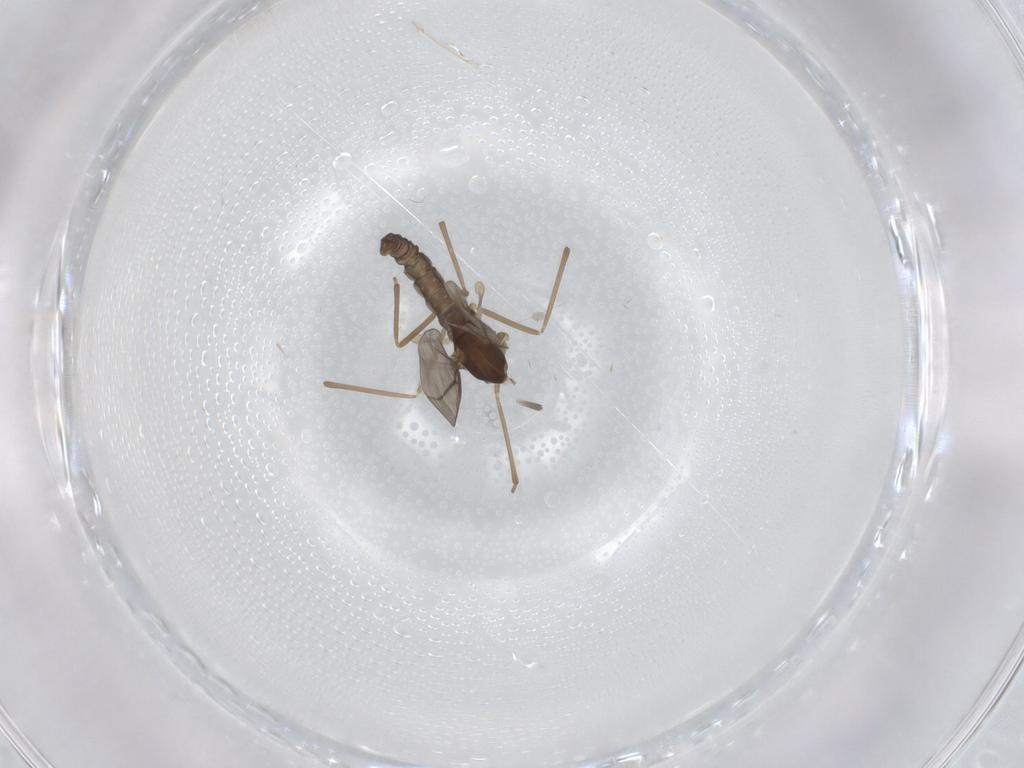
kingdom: Animalia
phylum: Arthropoda
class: Insecta
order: Diptera
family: Cecidomyiidae
